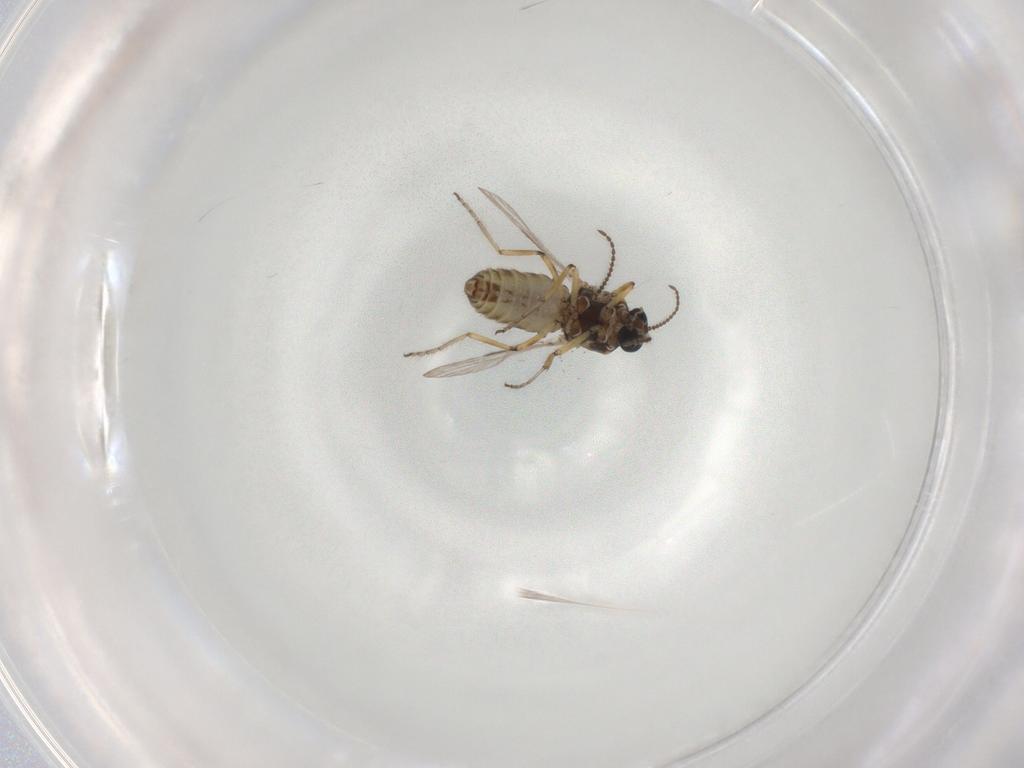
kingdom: Animalia
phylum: Arthropoda
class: Insecta
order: Diptera
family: Ceratopogonidae
